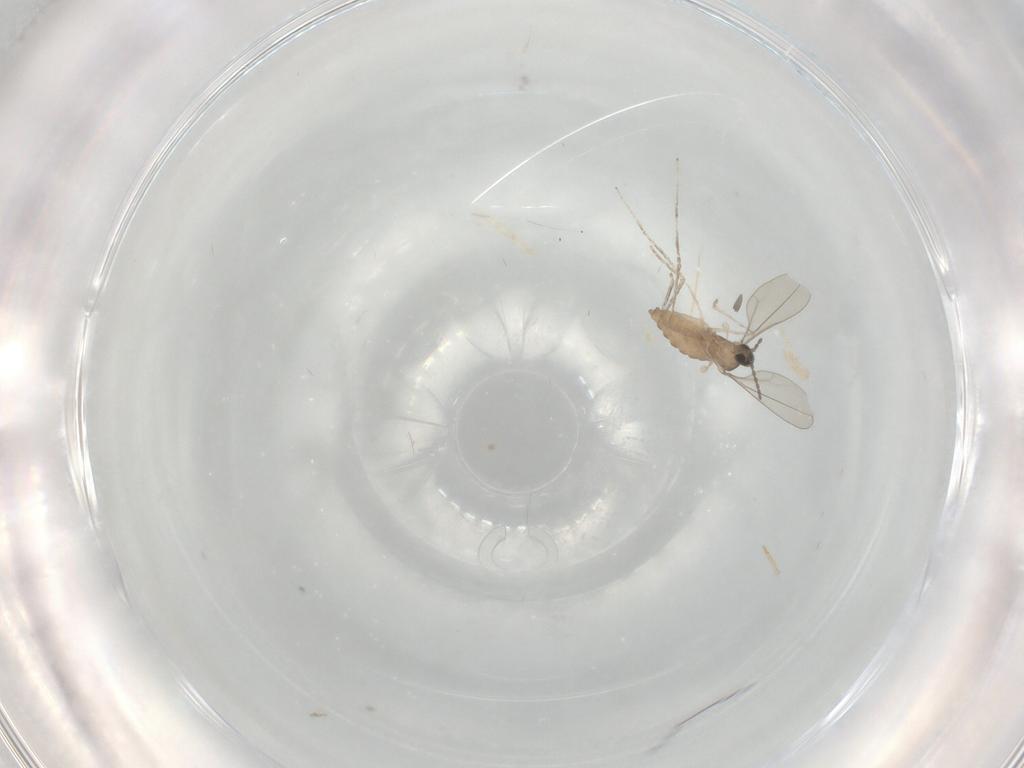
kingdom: Animalia
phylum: Arthropoda
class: Insecta
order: Diptera
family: Cecidomyiidae
